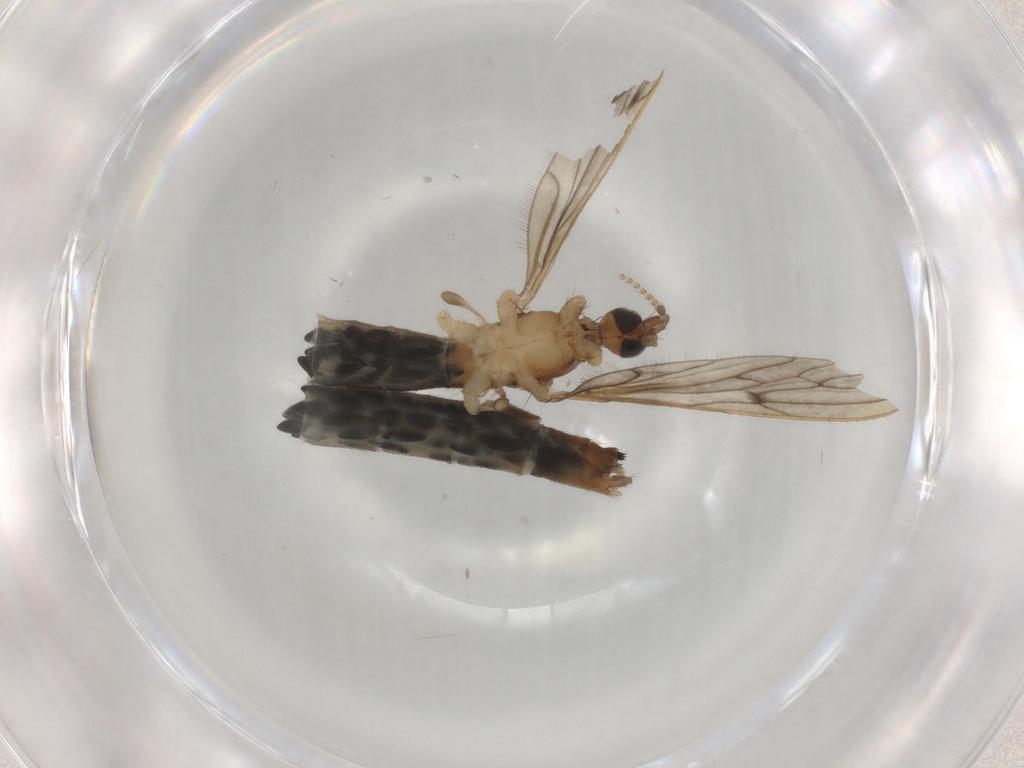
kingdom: Animalia
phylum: Arthropoda
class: Insecta
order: Diptera
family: Limoniidae
